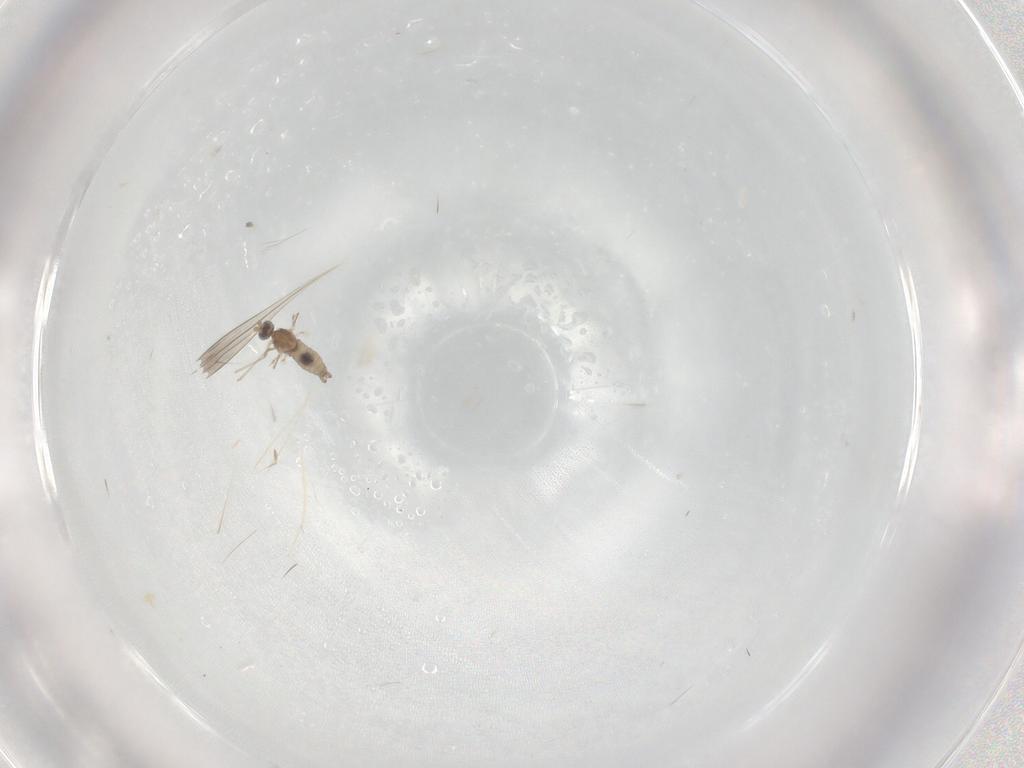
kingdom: Animalia
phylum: Arthropoda
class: Insecta
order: Diptera
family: Cecidomyiidae
